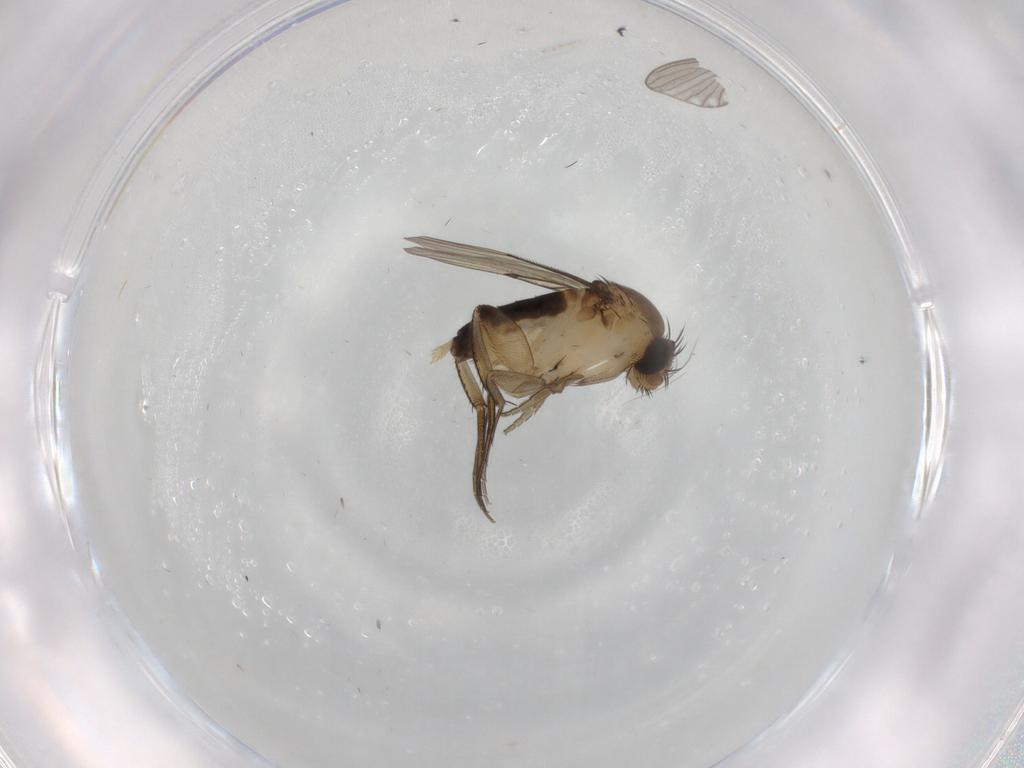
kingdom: Animalia
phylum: Arthropoda
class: Insecta
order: Diptera
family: Phoridae
